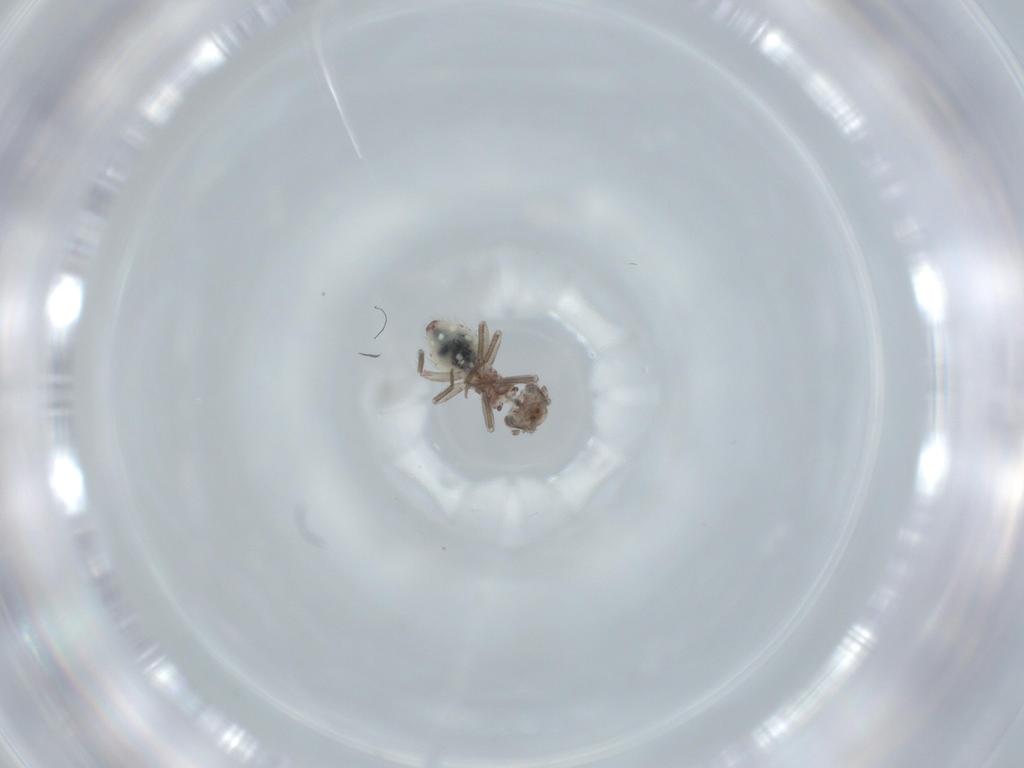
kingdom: Animalia
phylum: Arthropoda
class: Insecta
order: Psocodea
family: Lepidopsocidae
